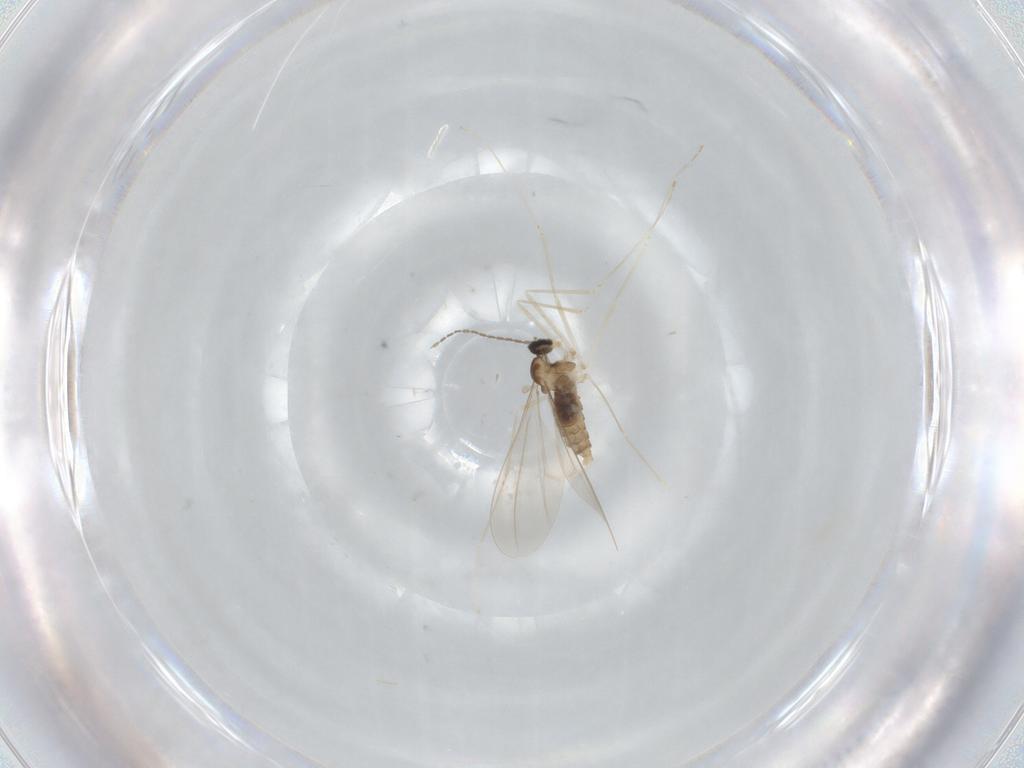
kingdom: Animalia
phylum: Arthropoda
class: Insecta
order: Diptera
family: Cecidomyiidae
